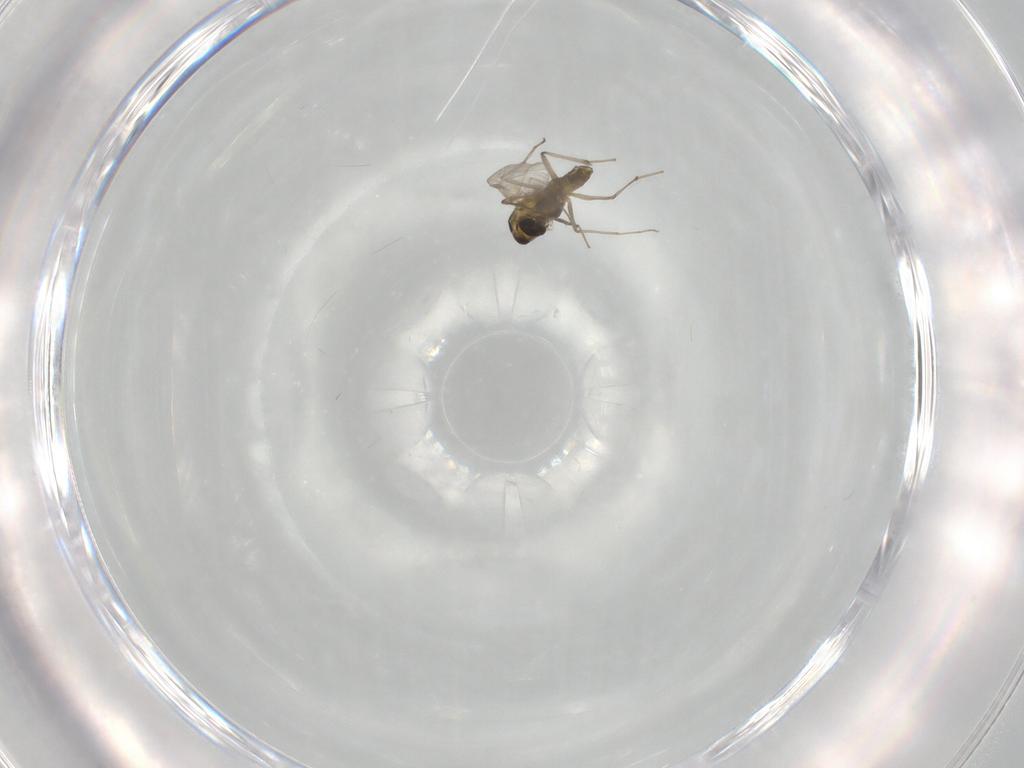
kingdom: Animalia
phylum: Arthropoda
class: Insecta
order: Diptera
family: Chironomidae
